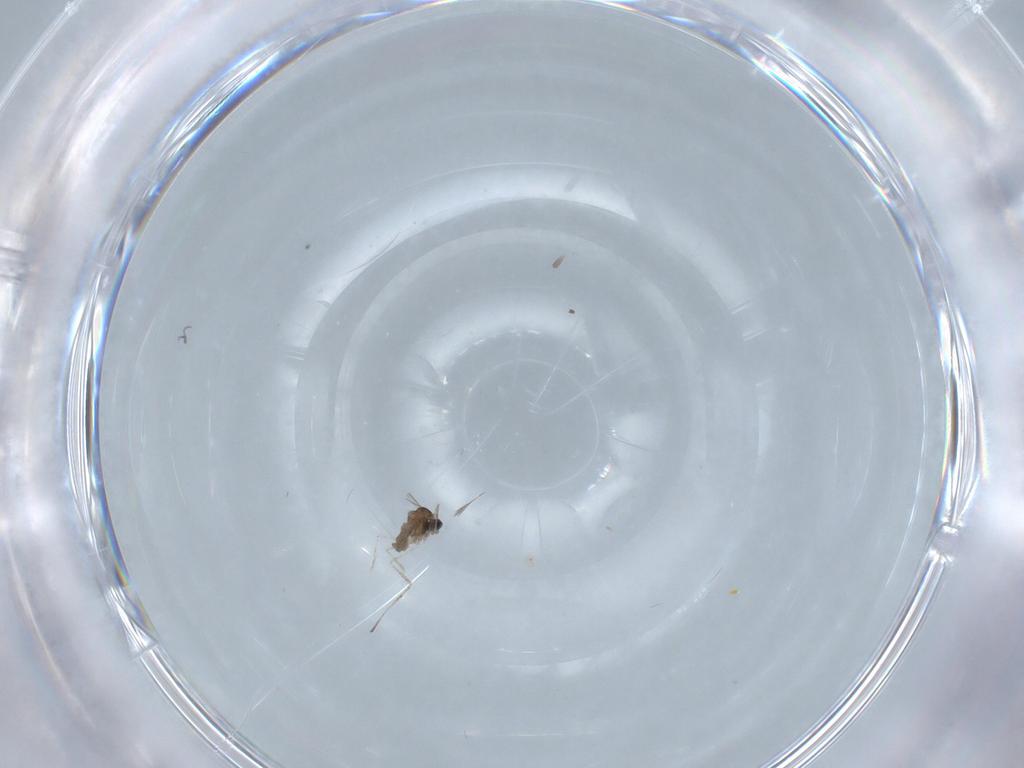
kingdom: Animalia
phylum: Arthropoda
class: Insecta
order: Diptera
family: Cecidomyiidae
